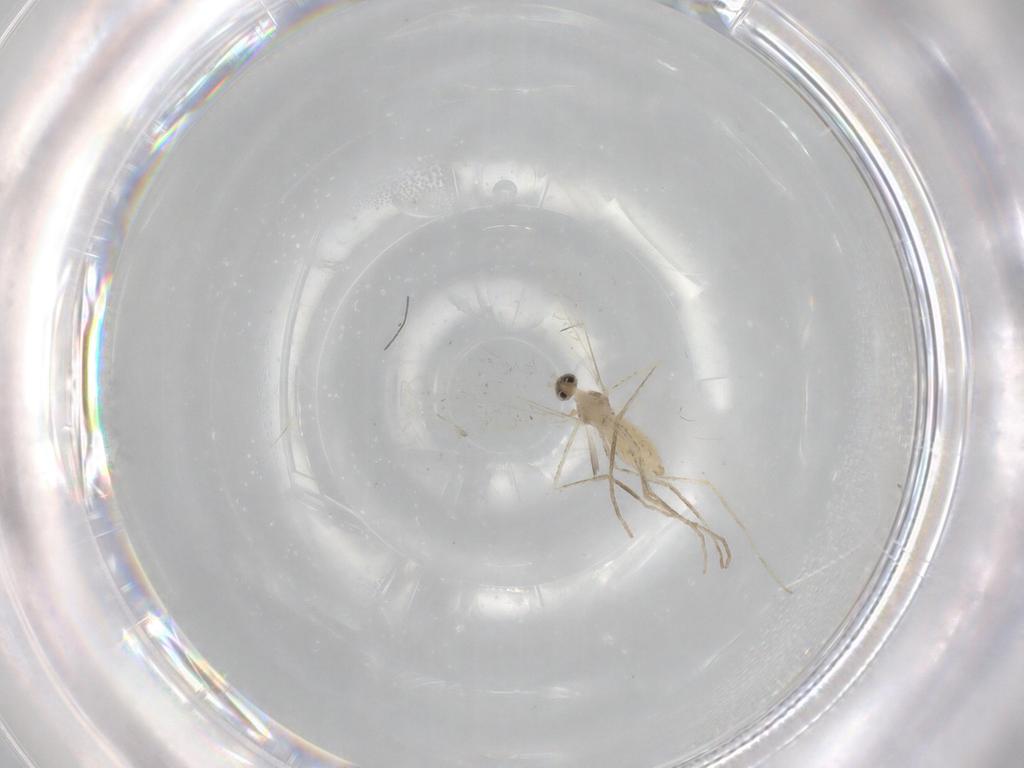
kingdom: Animalia
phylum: Arthropoda
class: Insecta
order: Diptera
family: Cecidomyiidae
